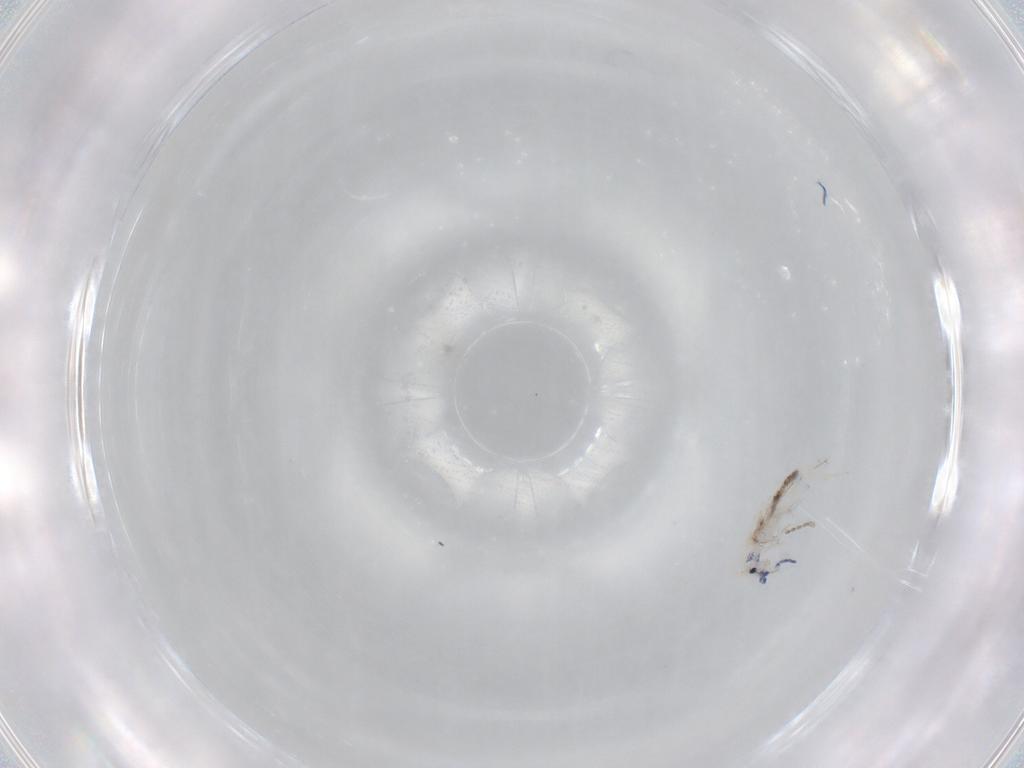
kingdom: Animalia
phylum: Arthropoda
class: Collembola
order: Entomobryomorpha
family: Entomobryidae
